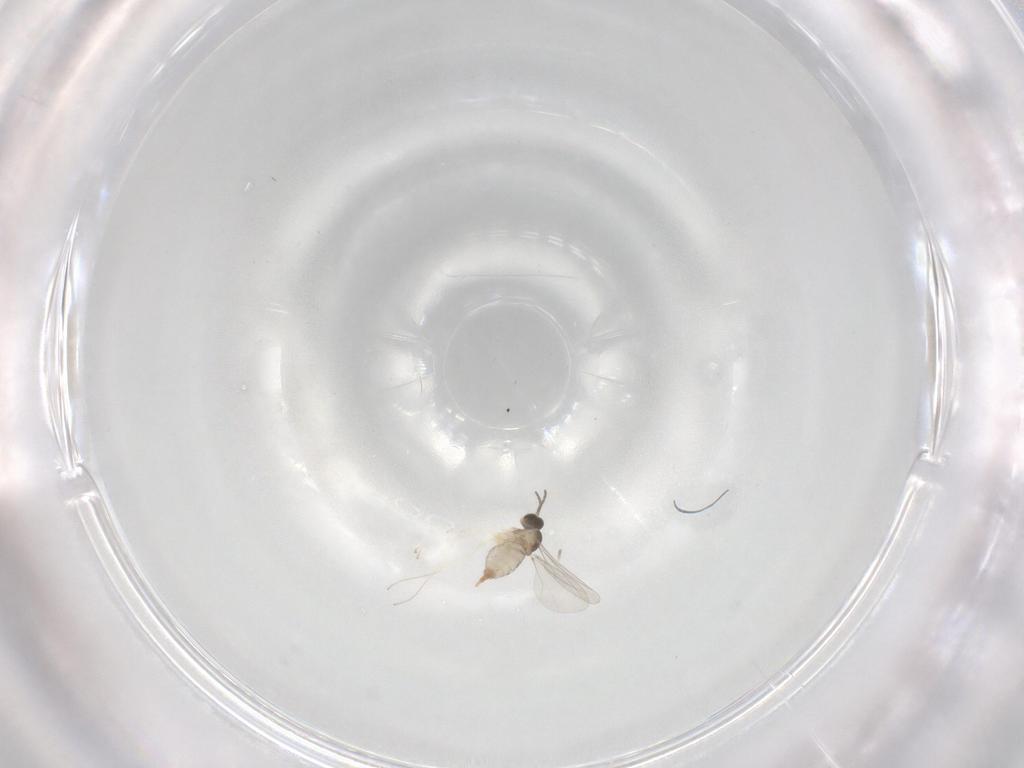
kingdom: Animalia
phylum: Arthropoda
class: Insecta
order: Diptera
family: Cecidomyiidae
